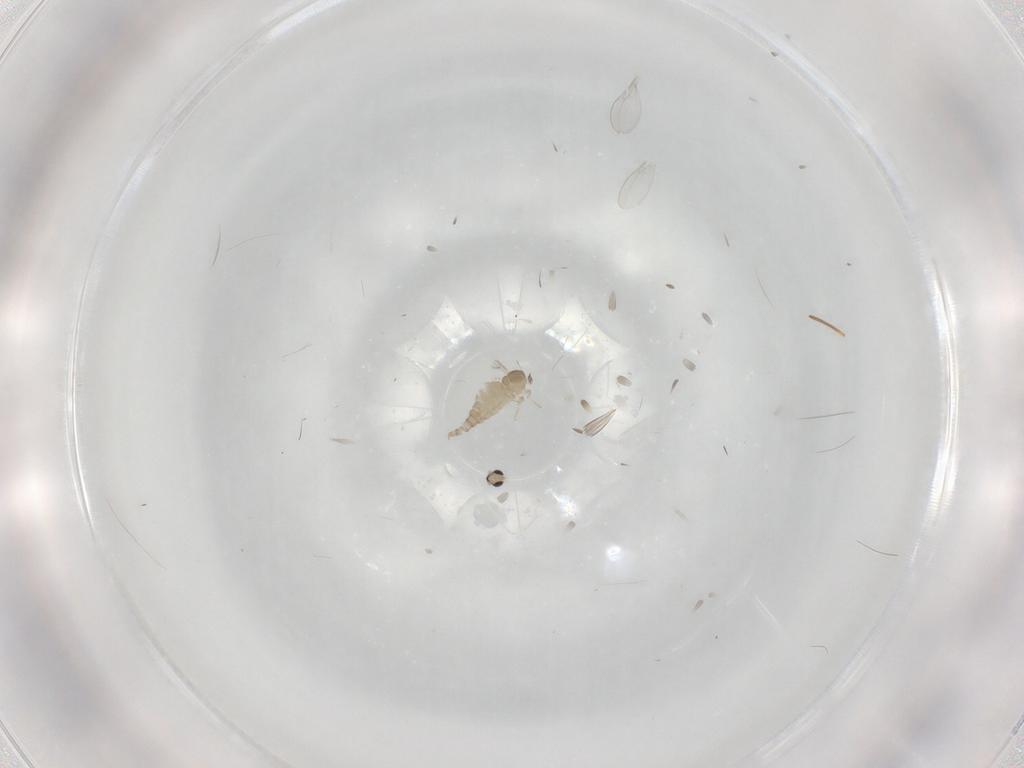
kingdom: Animalia
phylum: Arthropoda
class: Insecta
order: Diptera
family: Cecidomyiidae
